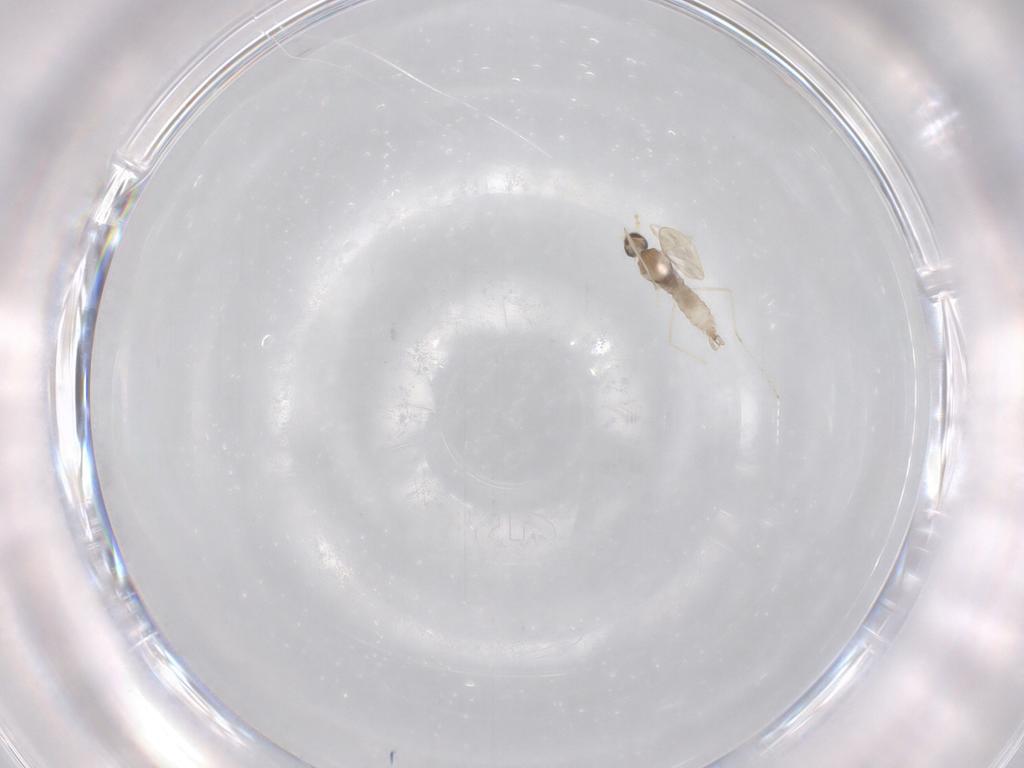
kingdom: Animalia
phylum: Arthropoda
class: Insecta
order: Diptera
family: Cecidomyiidae
